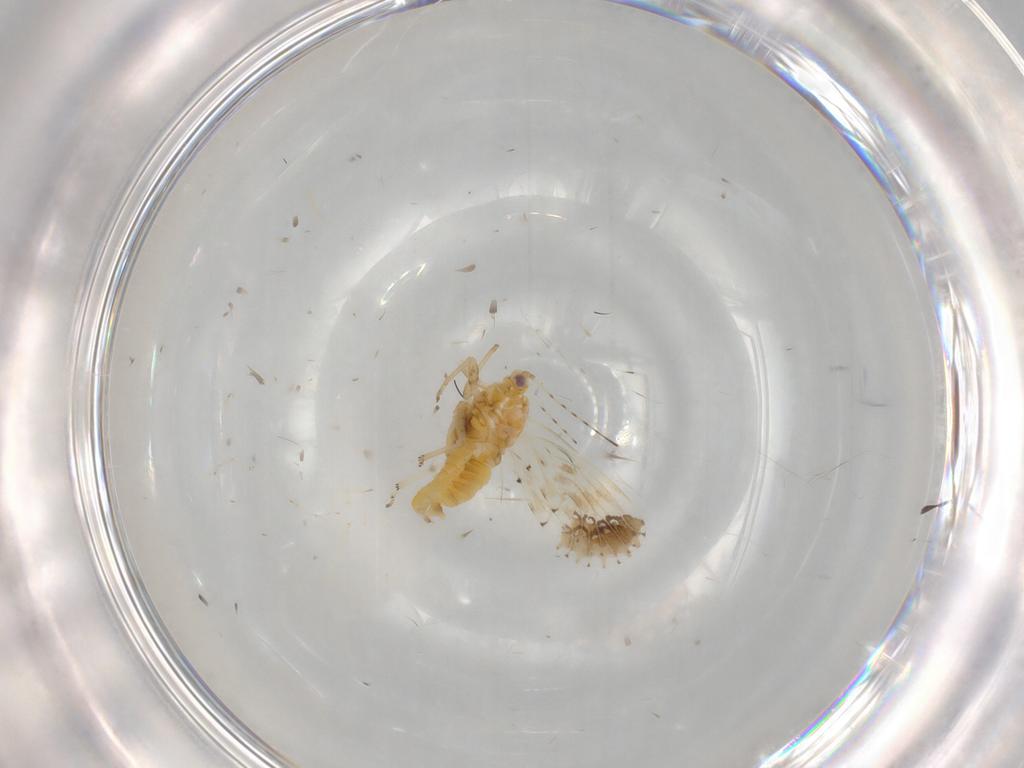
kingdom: Animalia
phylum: Arthropoda
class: Insecta
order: Hemiptera
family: Psyllidae
